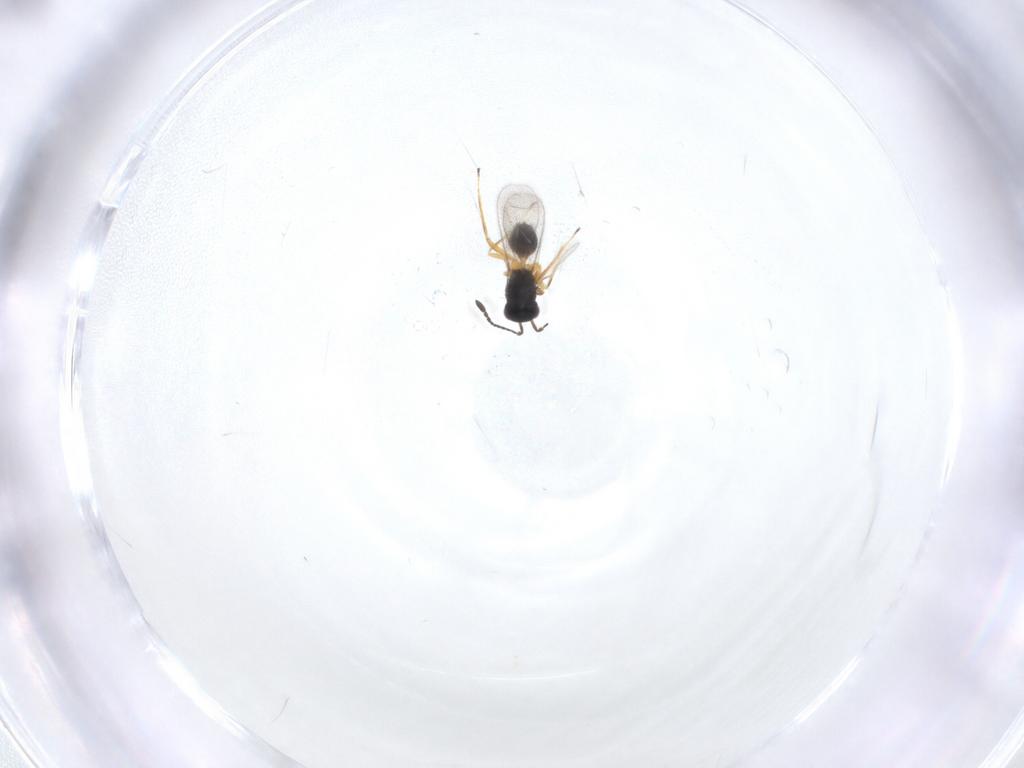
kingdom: Animalia
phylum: Arthropoda
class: Insecta
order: Hymenoptera
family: Mymaridae
